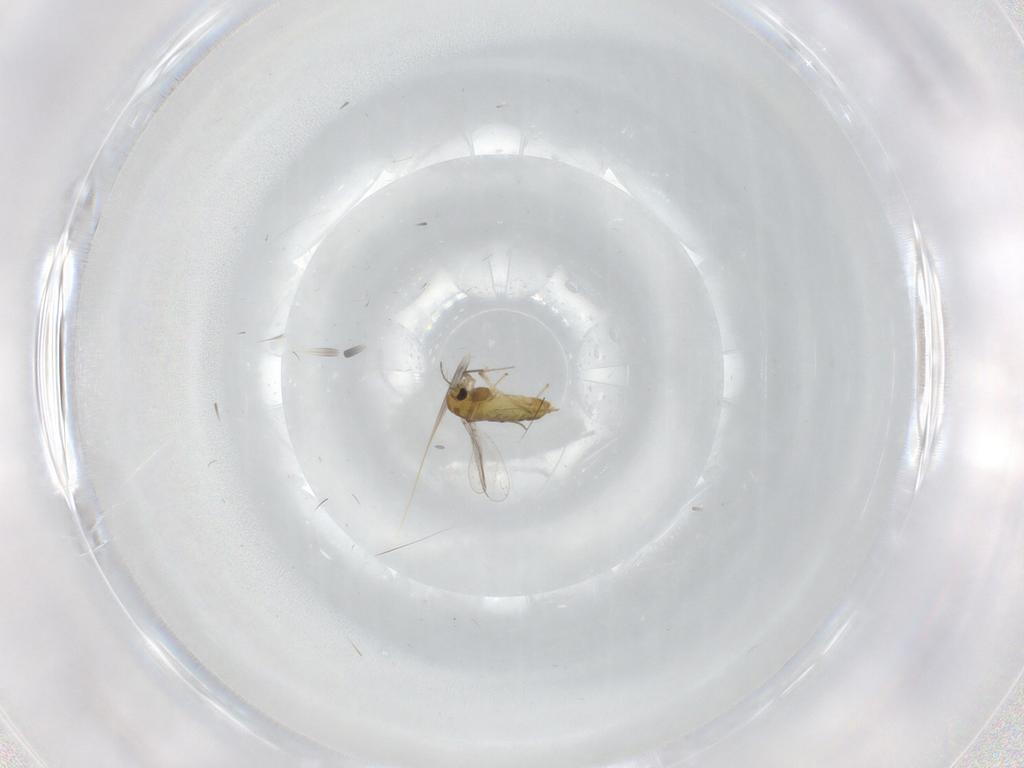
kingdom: Animalia
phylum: Arthropoda
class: Insecta
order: Diptera
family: Chironomidae
